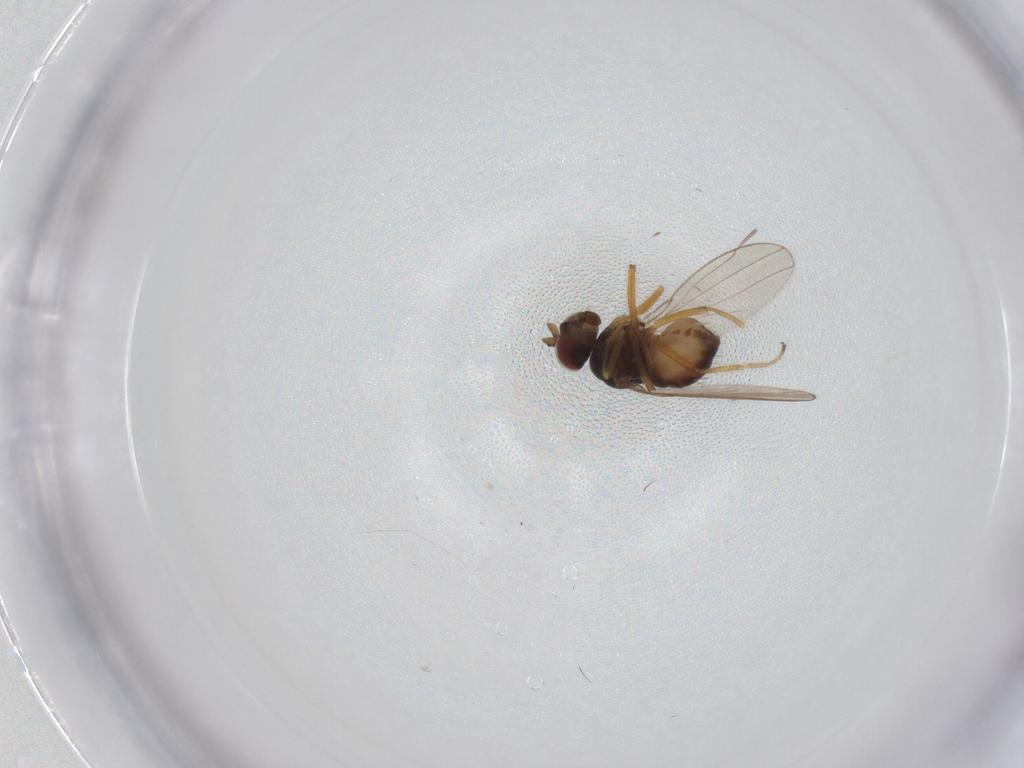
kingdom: Animalia
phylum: Arthropoda
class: Insecta
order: Diptera
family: Ephydridae
